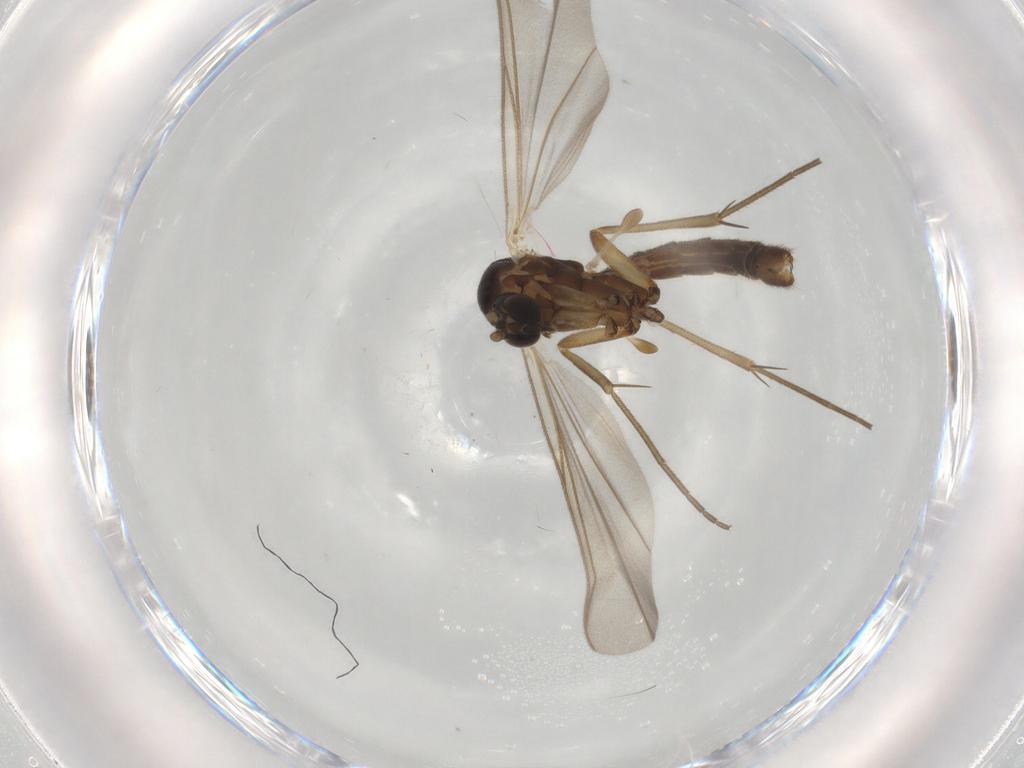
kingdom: Animalia
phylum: Arthropoda
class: Insecta
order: Diptera
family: Mycetophilidae
